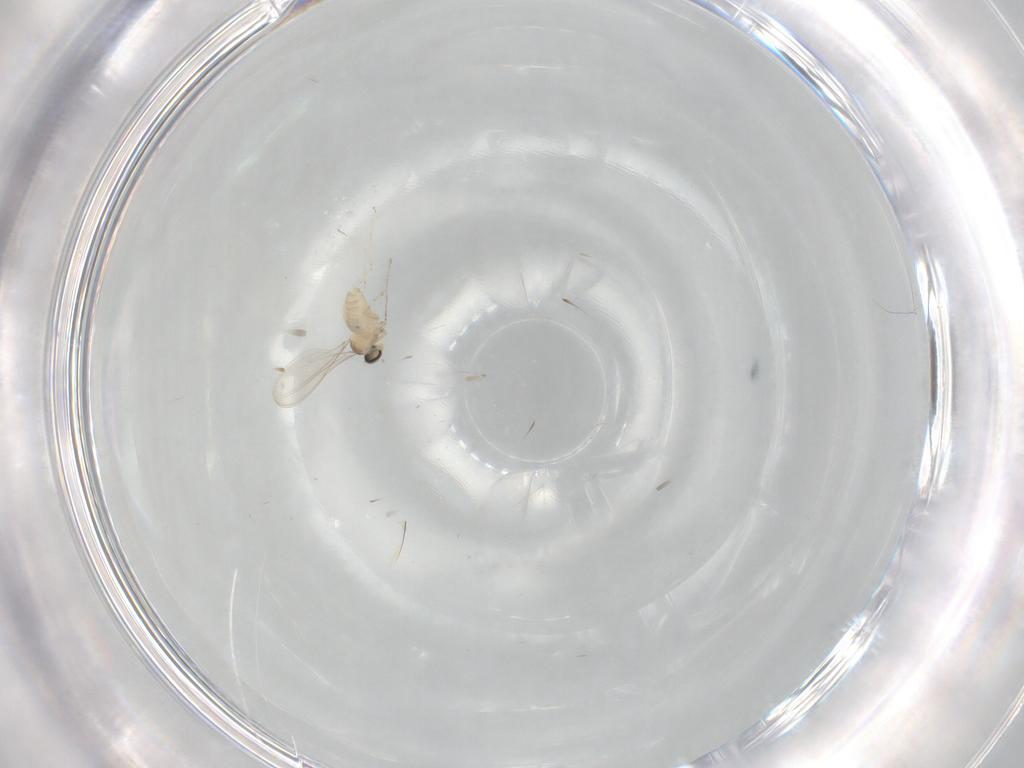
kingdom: Animalia
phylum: Arthropoda
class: Insecta
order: Diptera
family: Cecidomyiidae
